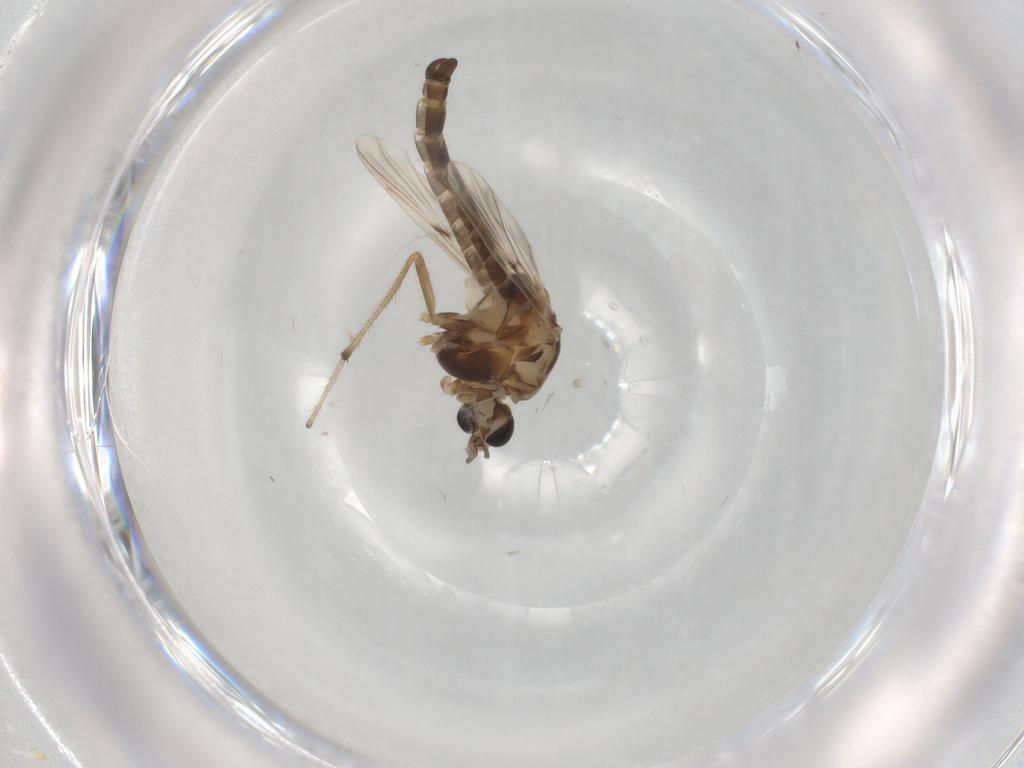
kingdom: Animalia
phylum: Arthropoda
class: Insecta
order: Diptera
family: Chironomidae
